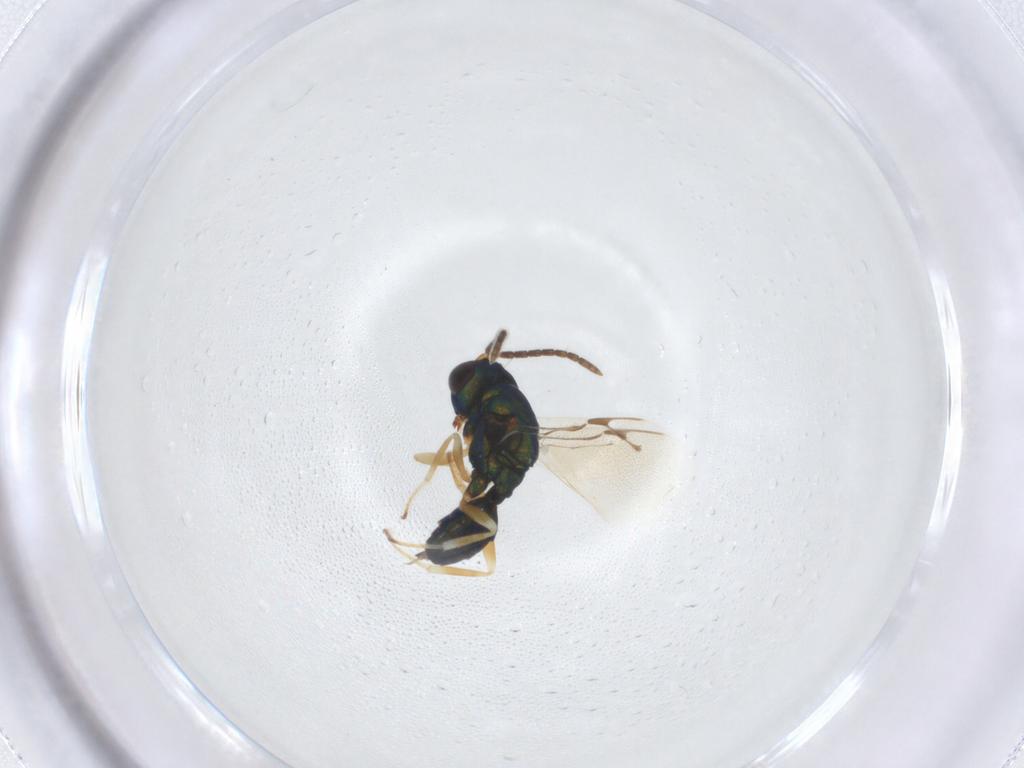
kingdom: Animalia
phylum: Arthropoda
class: Insecta
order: Hymenoptera
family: Pteromalidae
